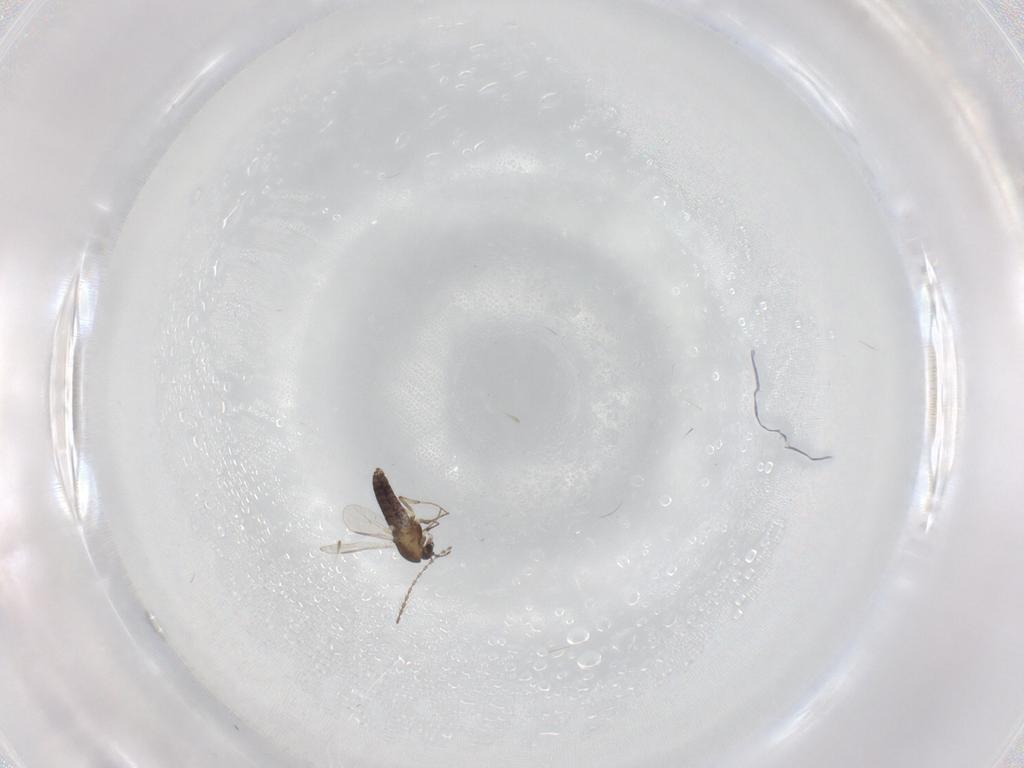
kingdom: Animalia
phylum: Arthropoda
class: Insecta
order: Diptera
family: Chironomidae
